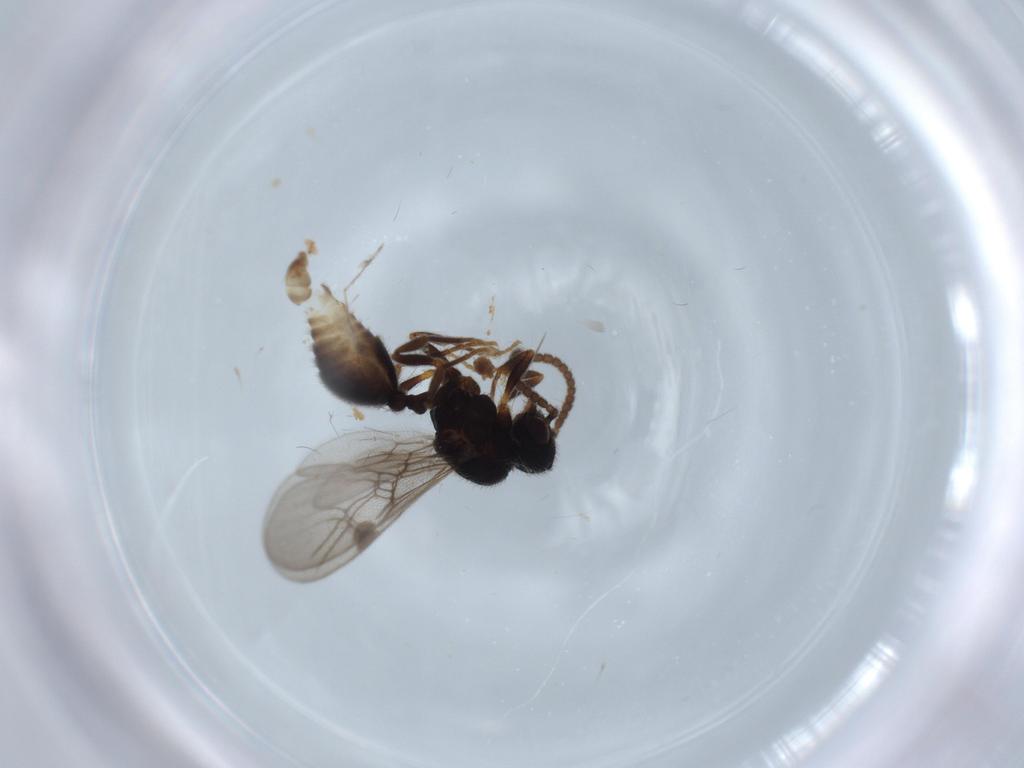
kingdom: Animalia
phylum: Arthropoda
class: Insecta
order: Hymenoptera
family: Formicidae
